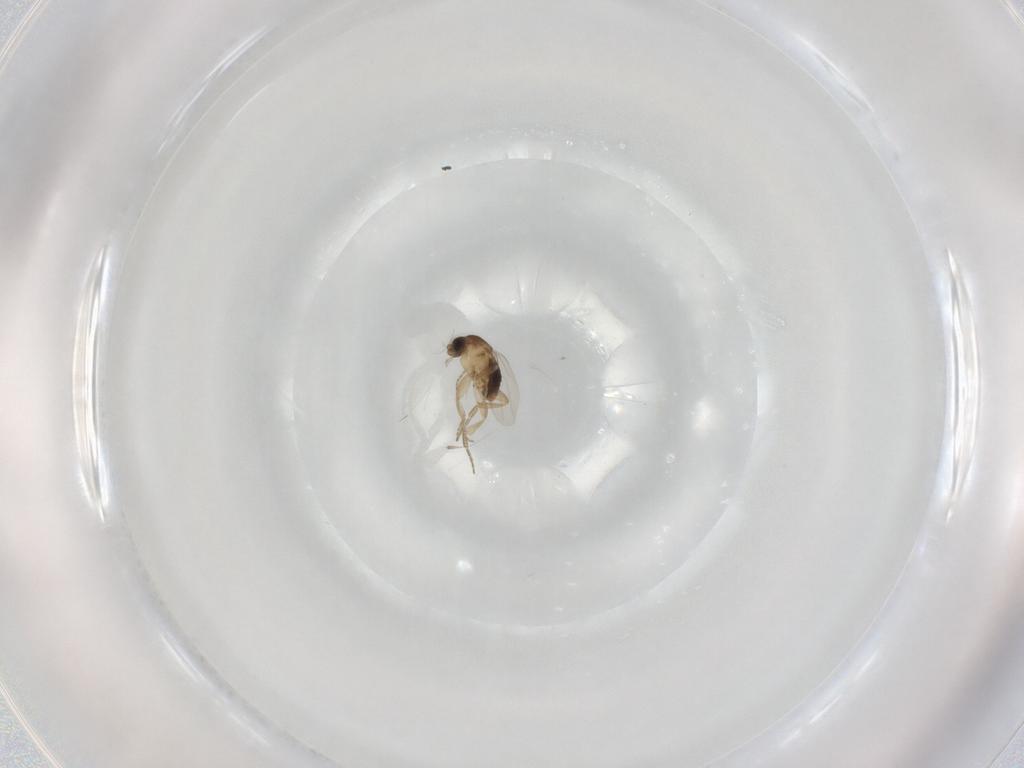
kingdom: Animalia
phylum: Arthropoda
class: Insecta
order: Diptera
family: Phoridae
